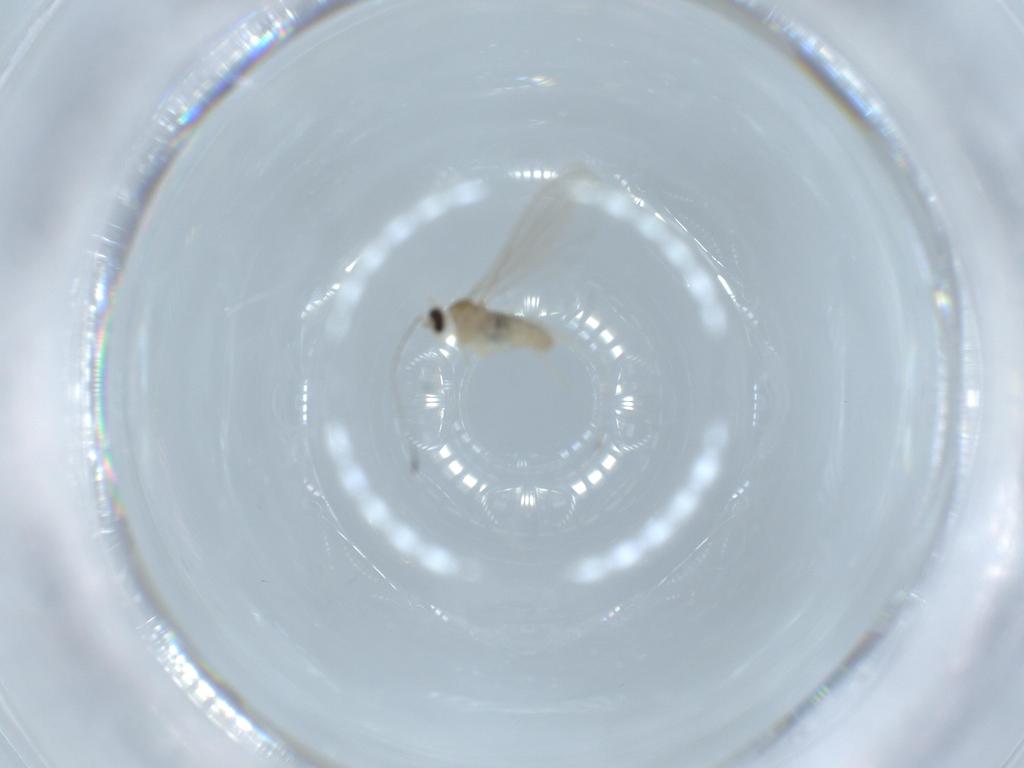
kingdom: Animalia
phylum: Arthropoda
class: Insecta
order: Diptera
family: Cecidomyiidae
